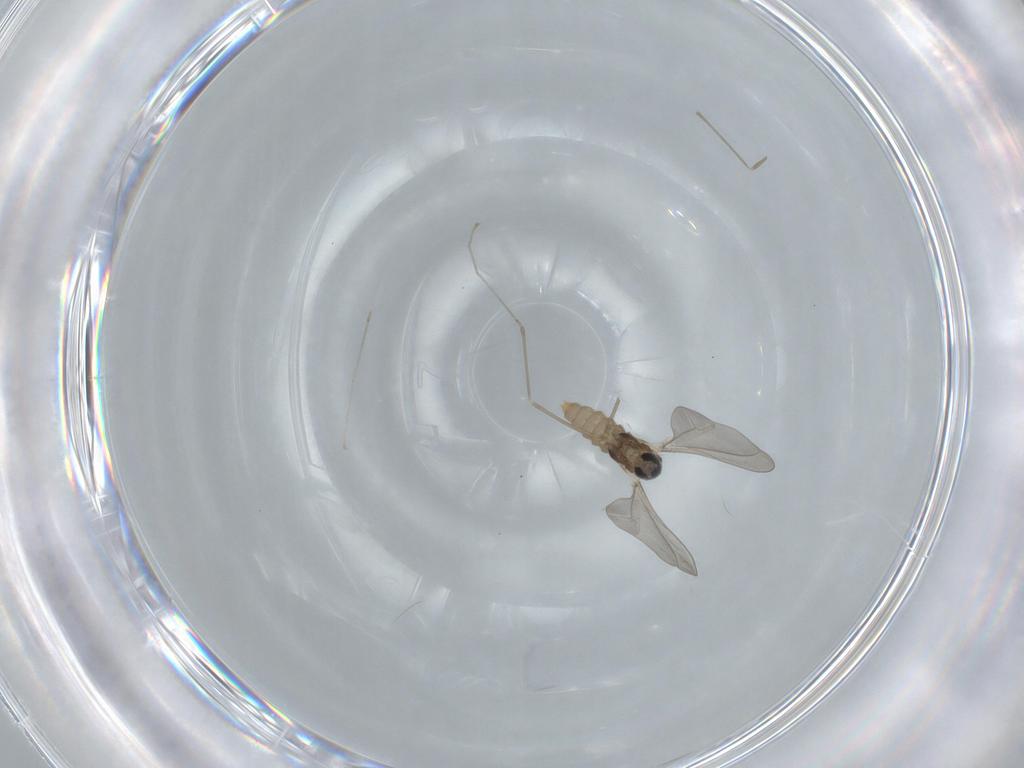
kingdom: Animalia
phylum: Arthropoda
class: Insecta
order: Diptera
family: Cecidomyiidae
